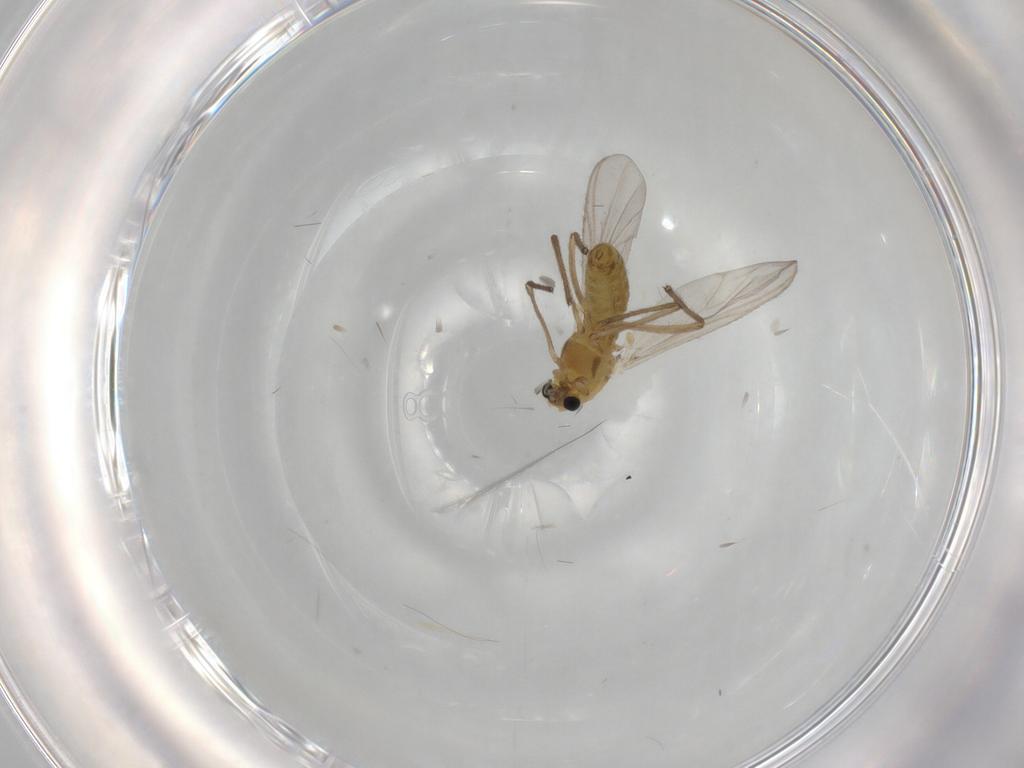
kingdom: Animalia
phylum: Arthropoda
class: Insecta
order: Diptera
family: Chironomidae
